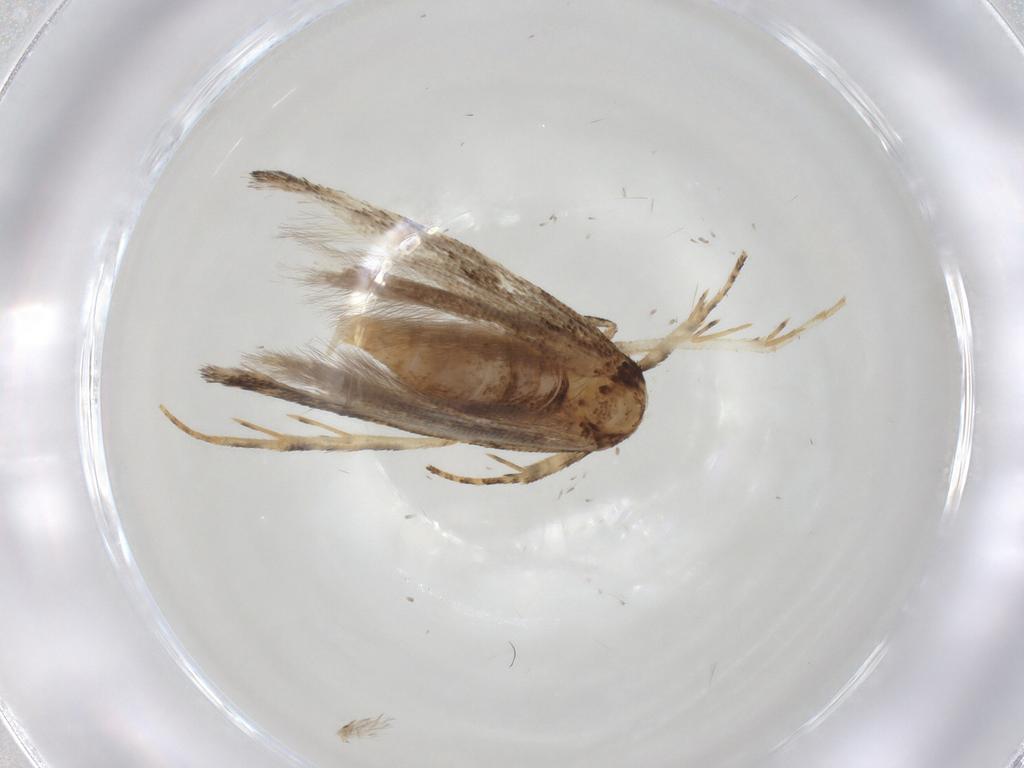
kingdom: Animalia
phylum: Arthropoda
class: Insecta
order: Lepidoptera
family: Gelechiidae
